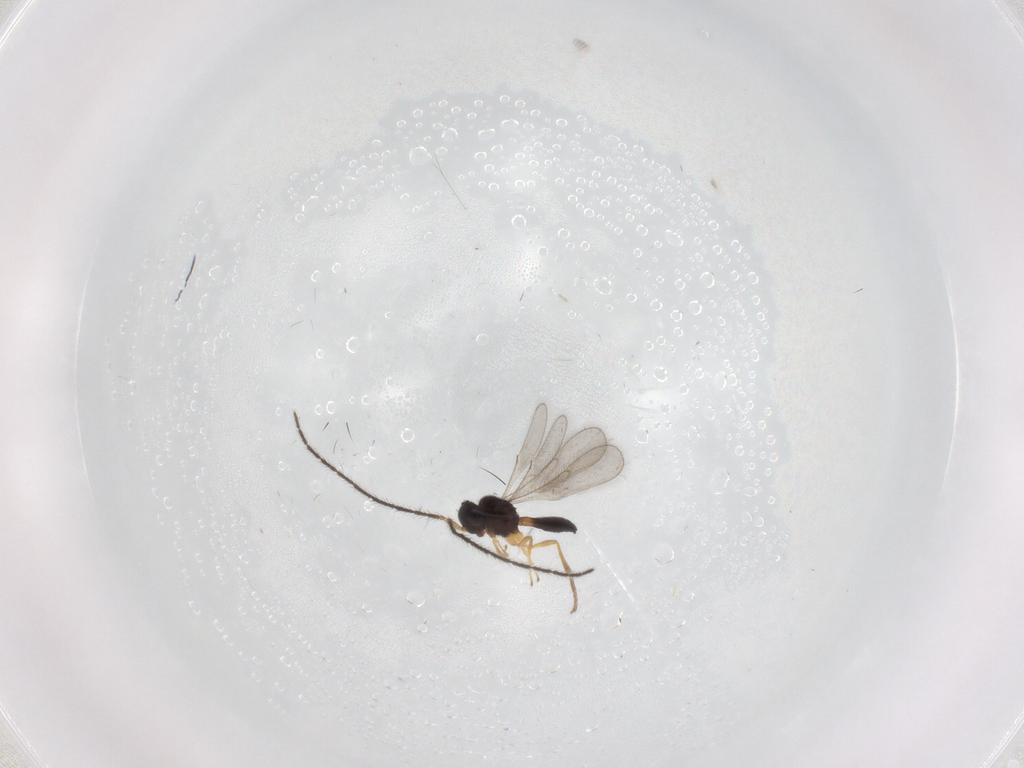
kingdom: Animalia
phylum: Arthropoda
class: Insecta
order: Hymenoptera
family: Scelionidae
